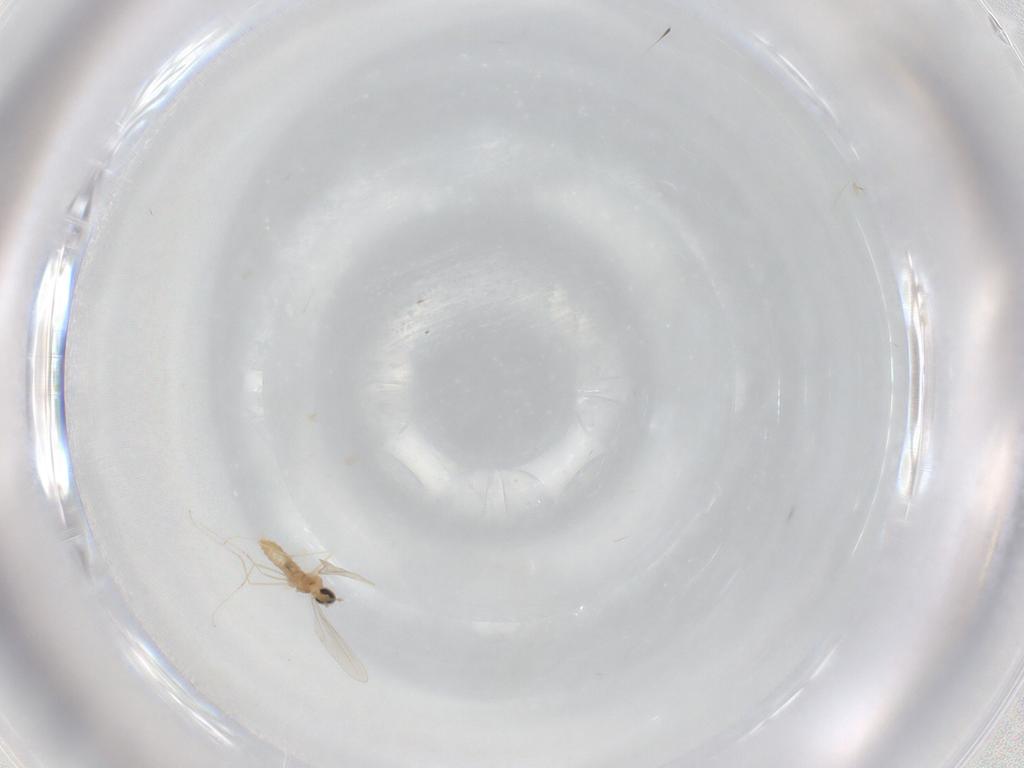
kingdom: Animalia
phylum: Arthropoda
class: Insecta
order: Diptera
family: Cecidomyiidae
